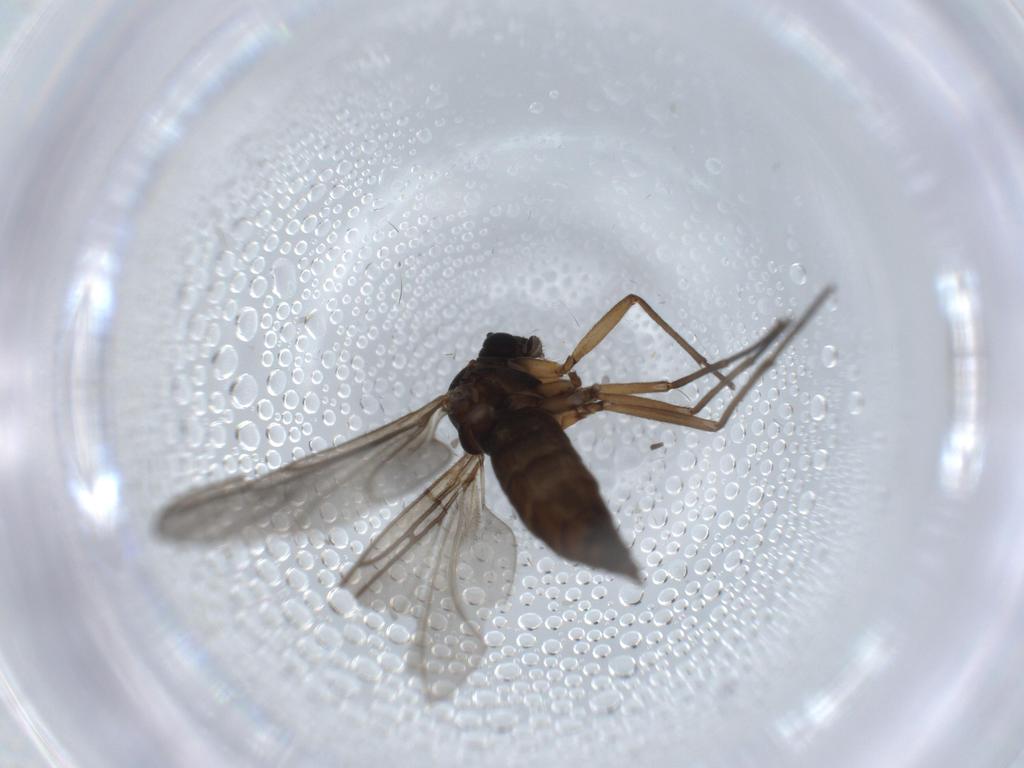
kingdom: Animalia
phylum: Arthropoda
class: Insecta
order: Diptera
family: Sciaridae
